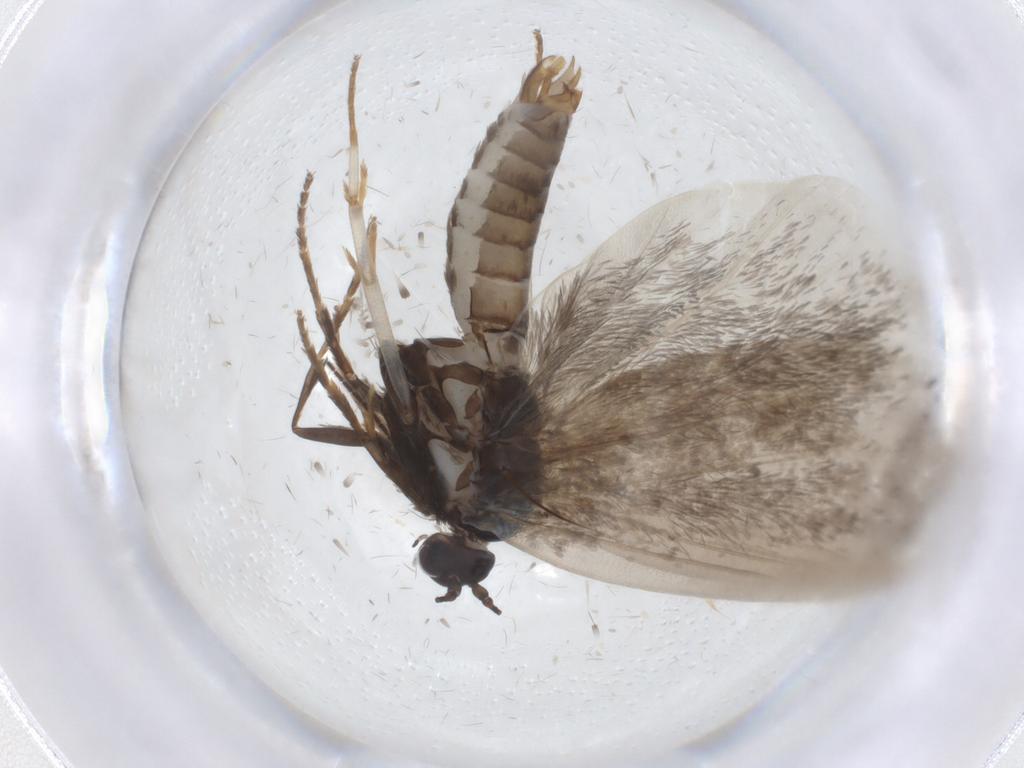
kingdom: Animalia
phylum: Arthropoda
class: Insecta
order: Lepidoptera
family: Psychidae
